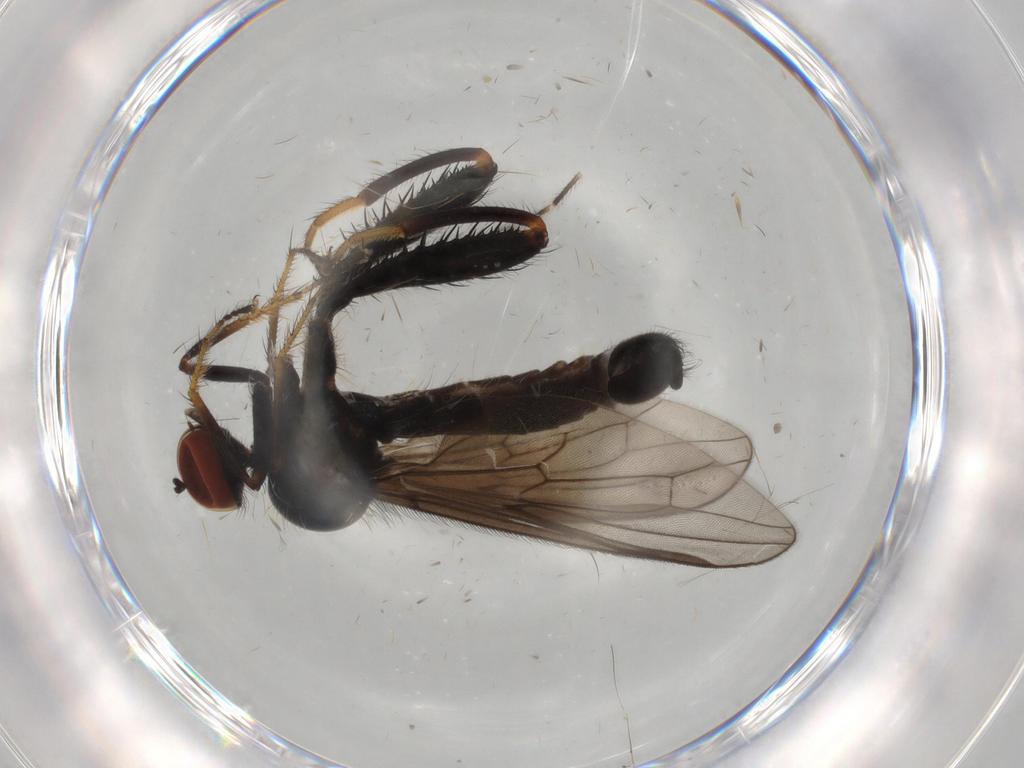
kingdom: Animalia
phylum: Arthropoda
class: Insecta
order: Diptera
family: Hybotidae
